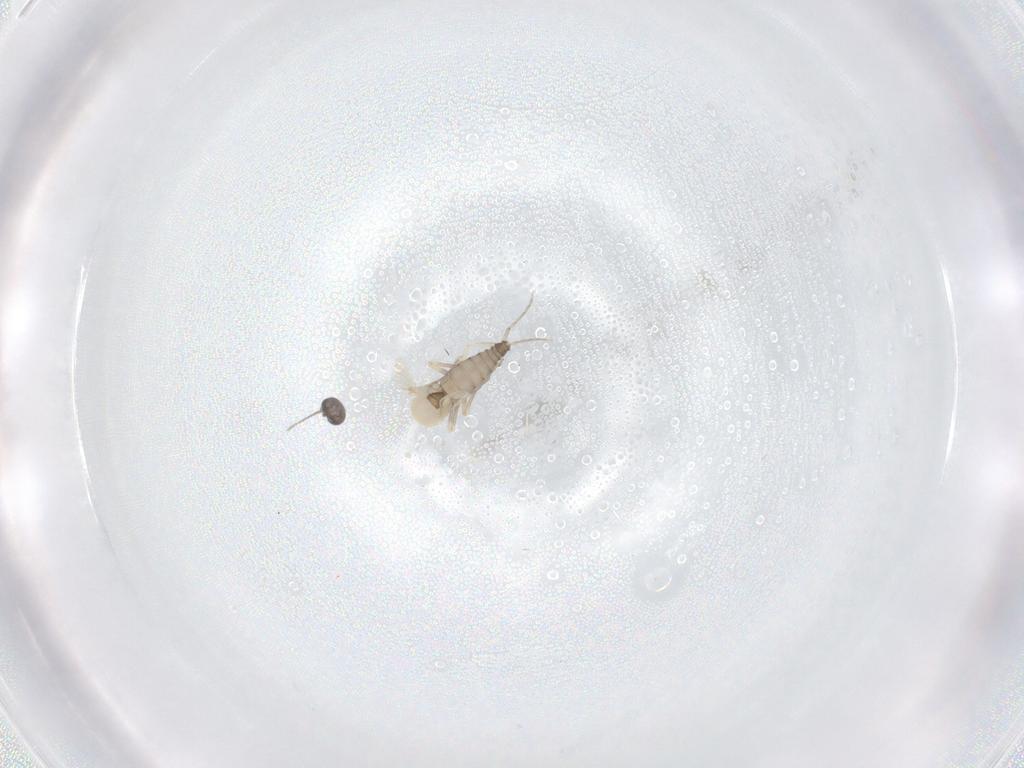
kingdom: Animalia
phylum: Arthropoda
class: Insecta
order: Diptera
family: Ceratopogonidae
